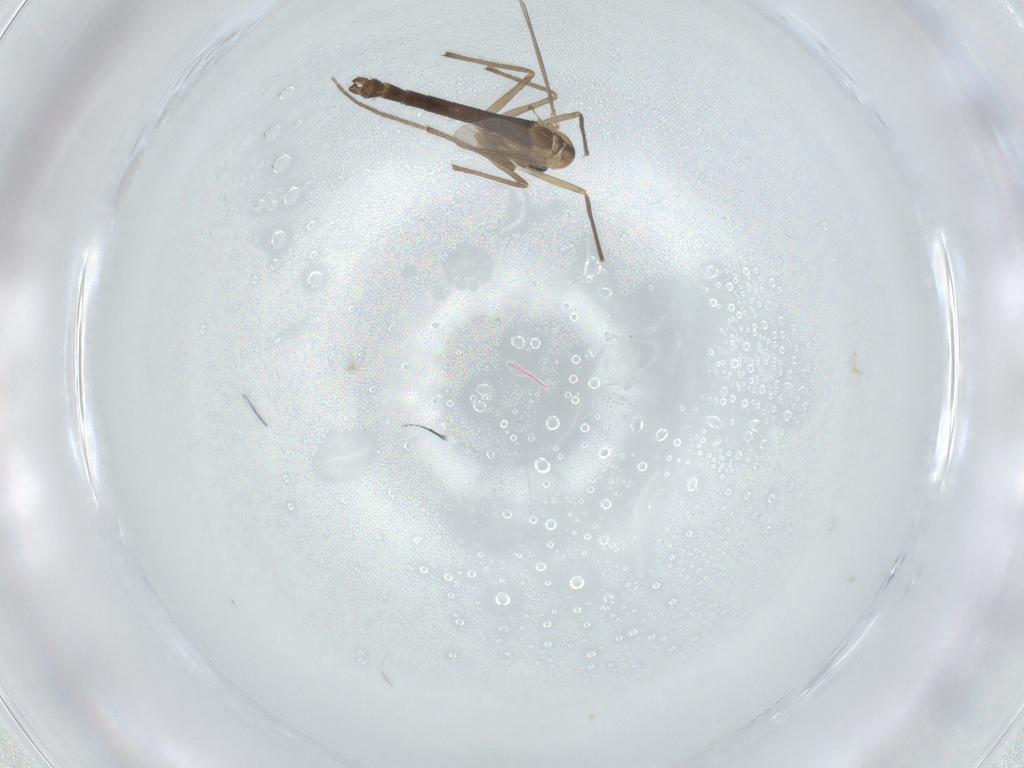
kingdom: Animalia
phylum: Arthropoda
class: Insecta
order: Diptera
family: Chironomidae
